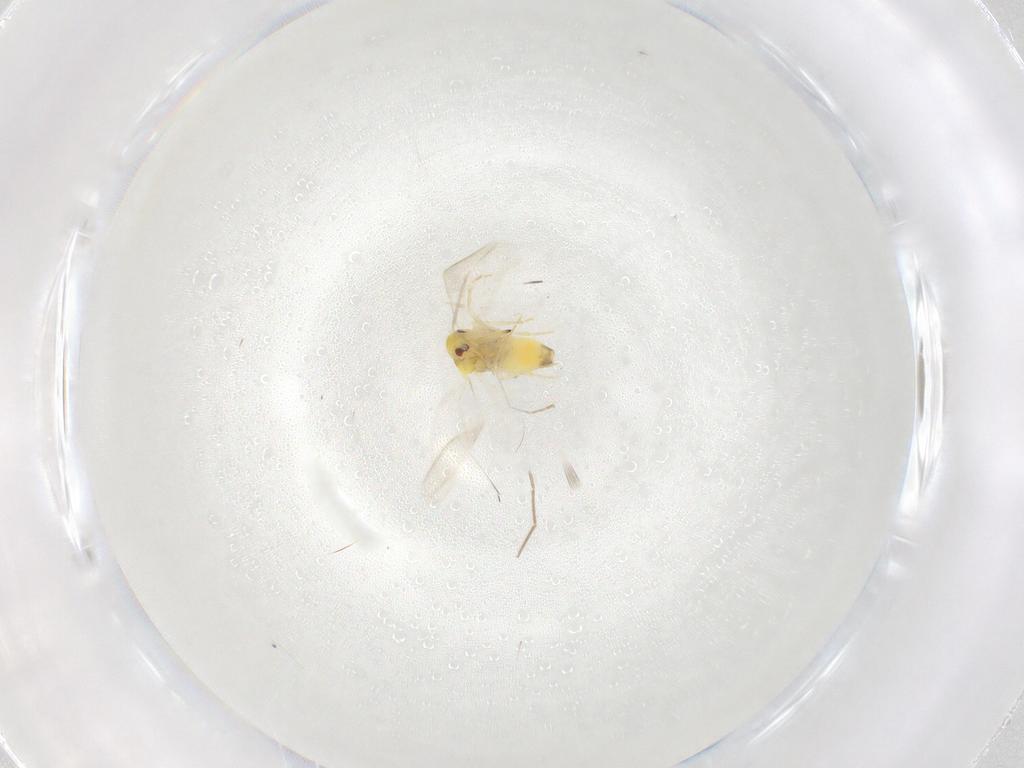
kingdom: Animalia
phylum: Arthropoda
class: Insecta
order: Hemiptera
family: Aleyrodidae
